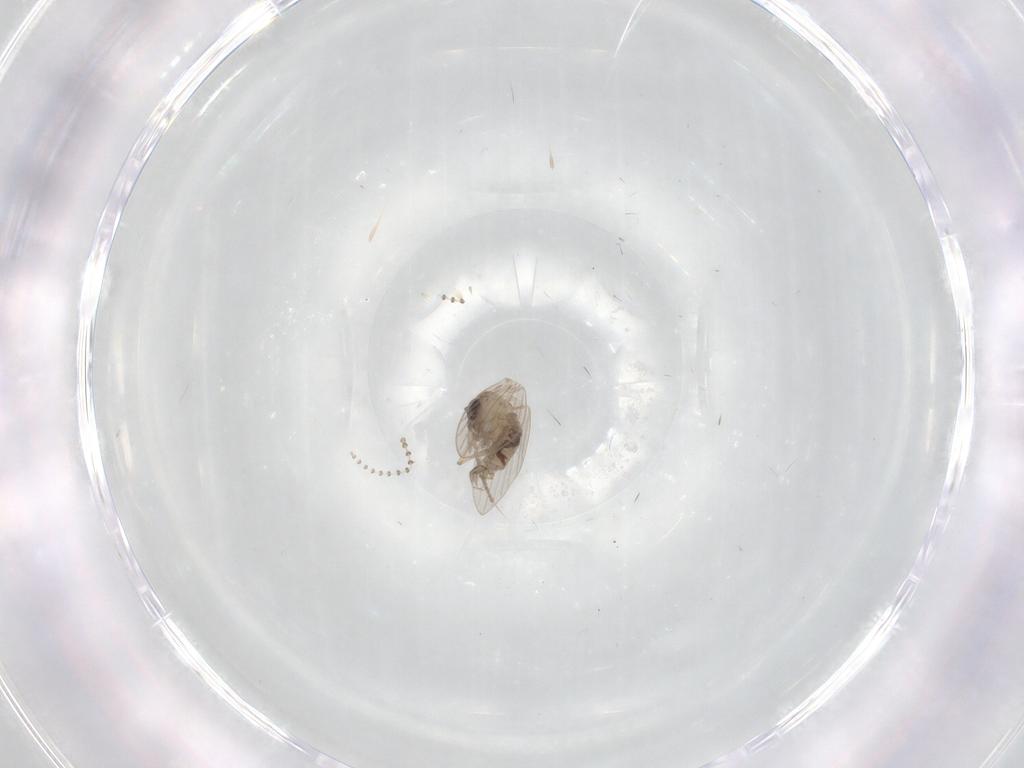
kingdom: Animalia
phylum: Arthropoda
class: Insecta
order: Diptera
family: Psychodidae
